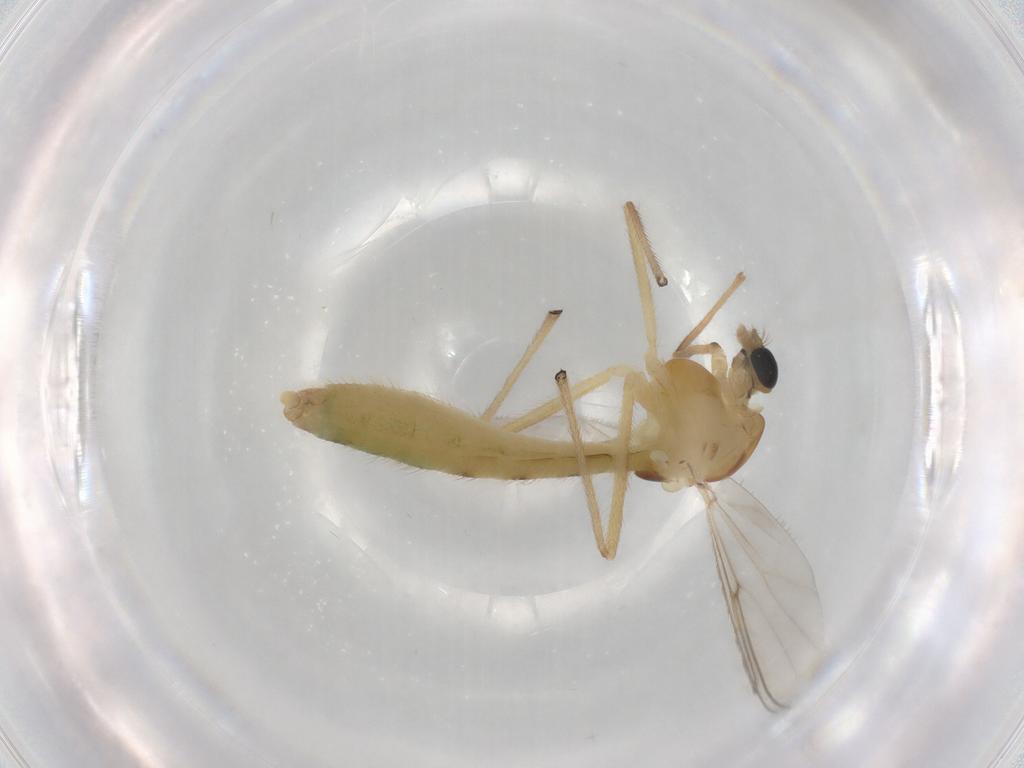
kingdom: Animalia
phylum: Arthropoda
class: Insecta
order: Diptera
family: Chironomidae
